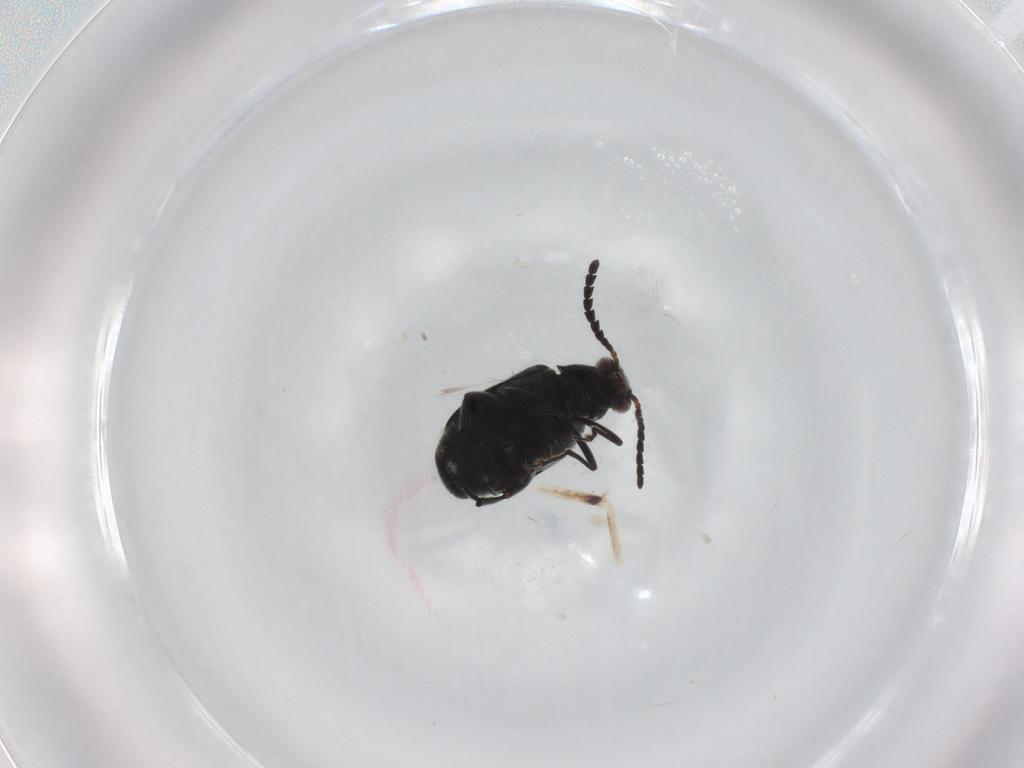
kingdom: Animalia
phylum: Arthropoda
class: Insecta
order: Coleoptera
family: Chrysomelidae
